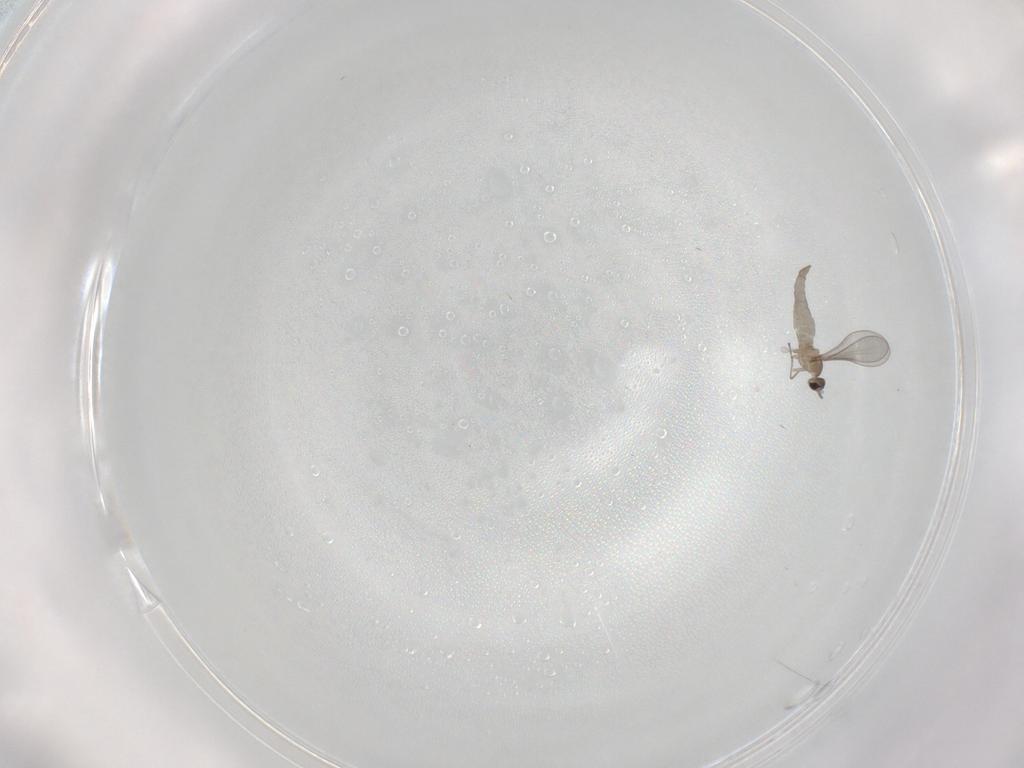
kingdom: Animalia
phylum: Arthropoda
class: Insecta
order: Diptera
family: Cecidomyiidae
